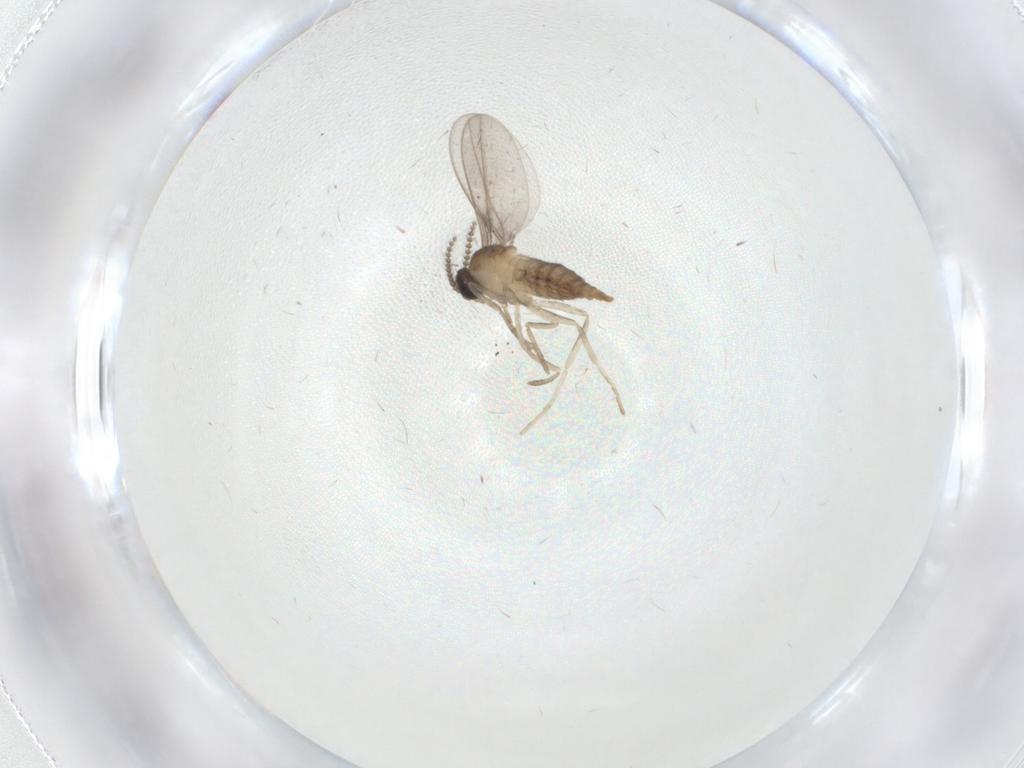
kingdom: Animalia
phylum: Arthropoda
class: Insecta
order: Diptera
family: Cecidomyiidae
